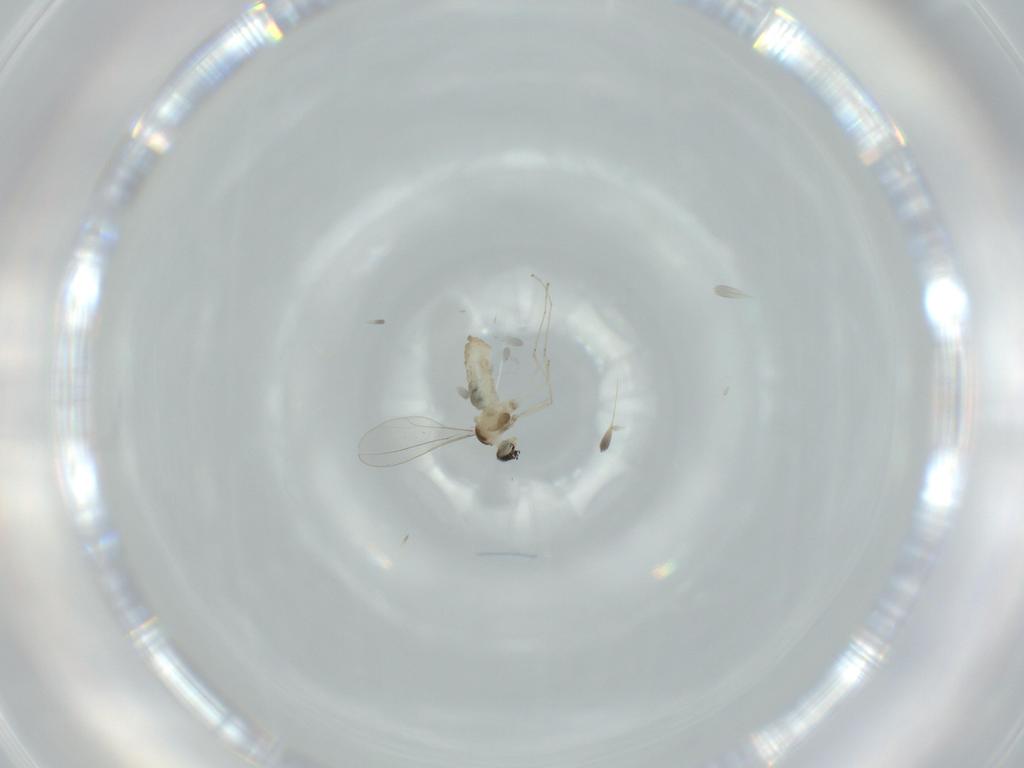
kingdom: Animalia
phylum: Arthropoda
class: Insecta
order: Diptera
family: Cecidomyiidae
